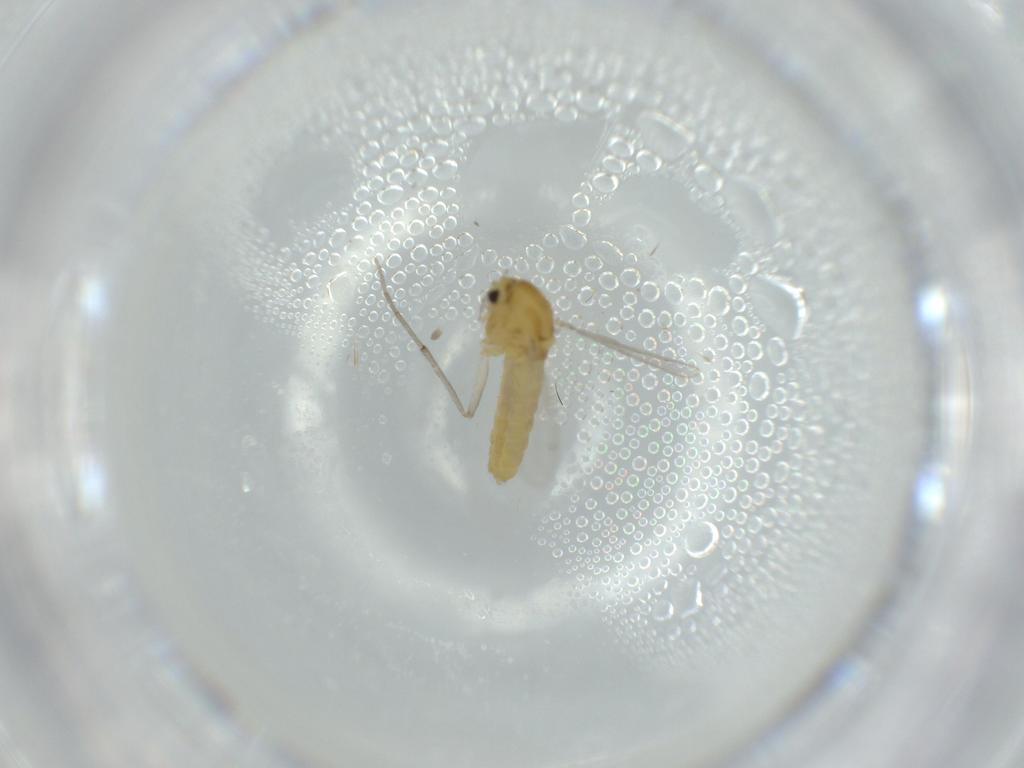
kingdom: Animalia
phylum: Arthropoda
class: Insecta
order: Diptera
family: Chironomidae
